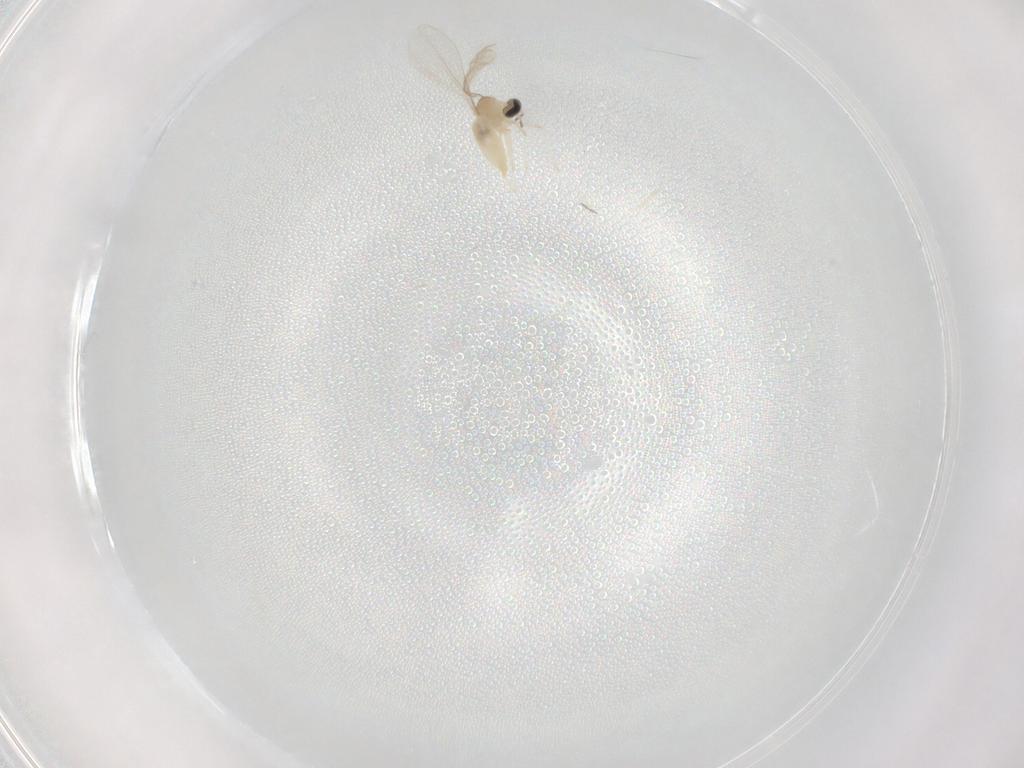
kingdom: Animalia
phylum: Arthropoda
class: Insecta
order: Diptera
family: Cecidomyiidae
